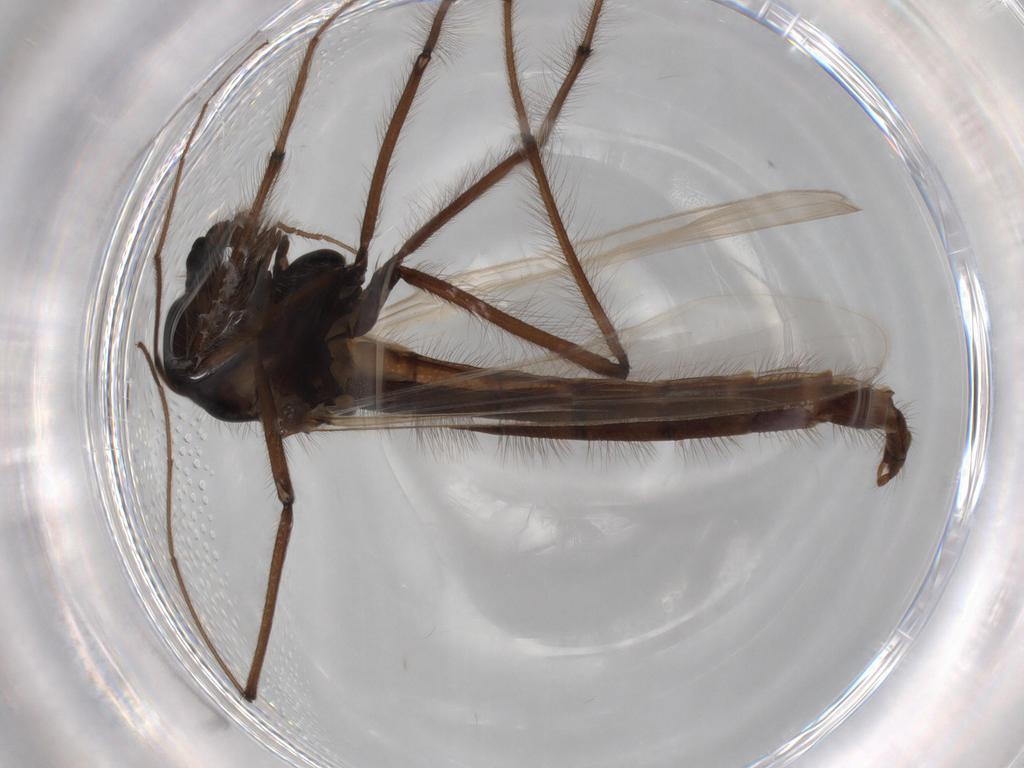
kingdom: Animalia
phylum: Arthropoda
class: Insecta
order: Diptera
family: Chironomidae
